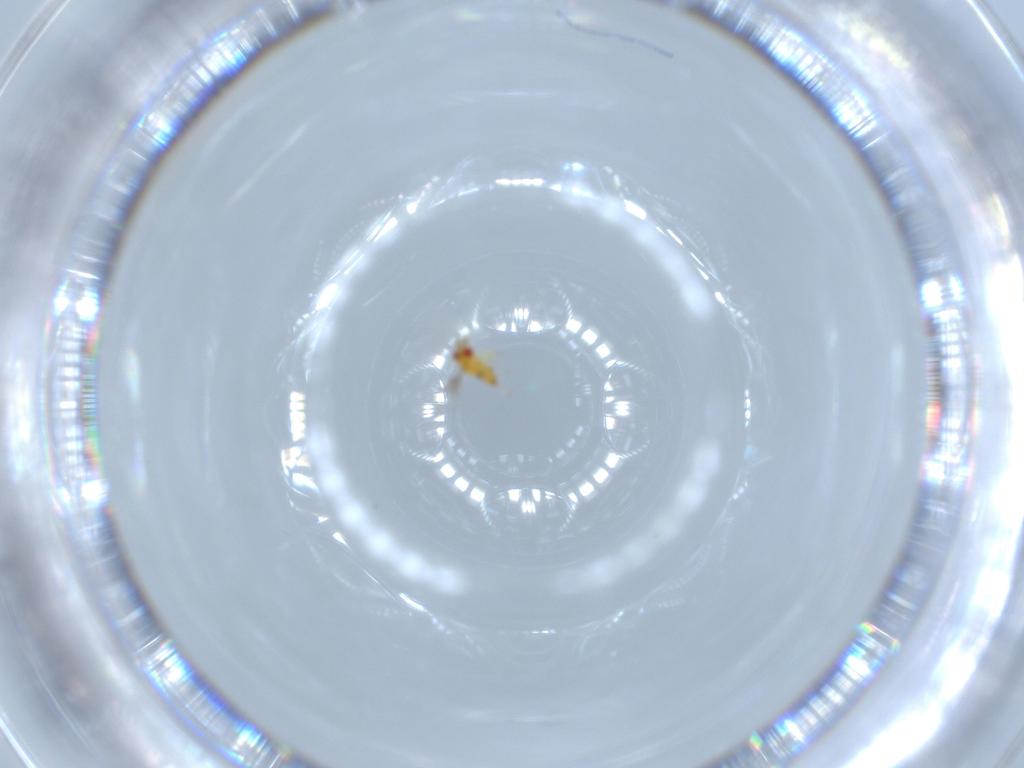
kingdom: Animalia
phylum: Arthropoda
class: Insecta
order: Hymenoptera
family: Trichogrammatidae
